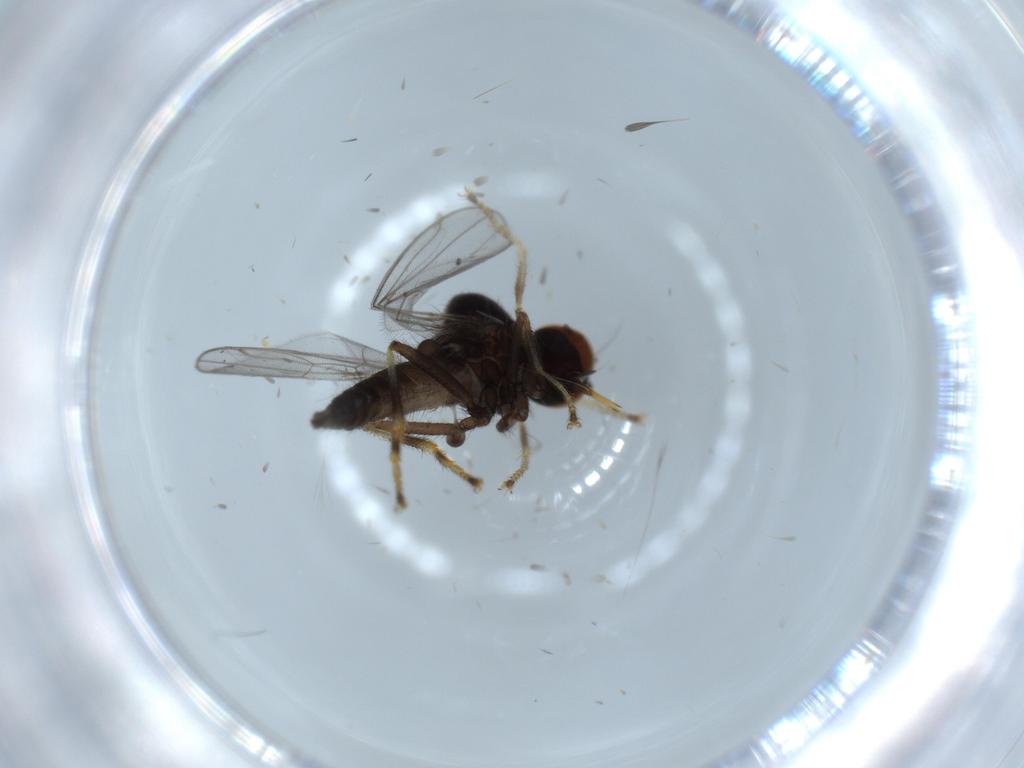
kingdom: Animalia
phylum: Arthropoda
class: Insecta
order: Diptera
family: Hybotidae
